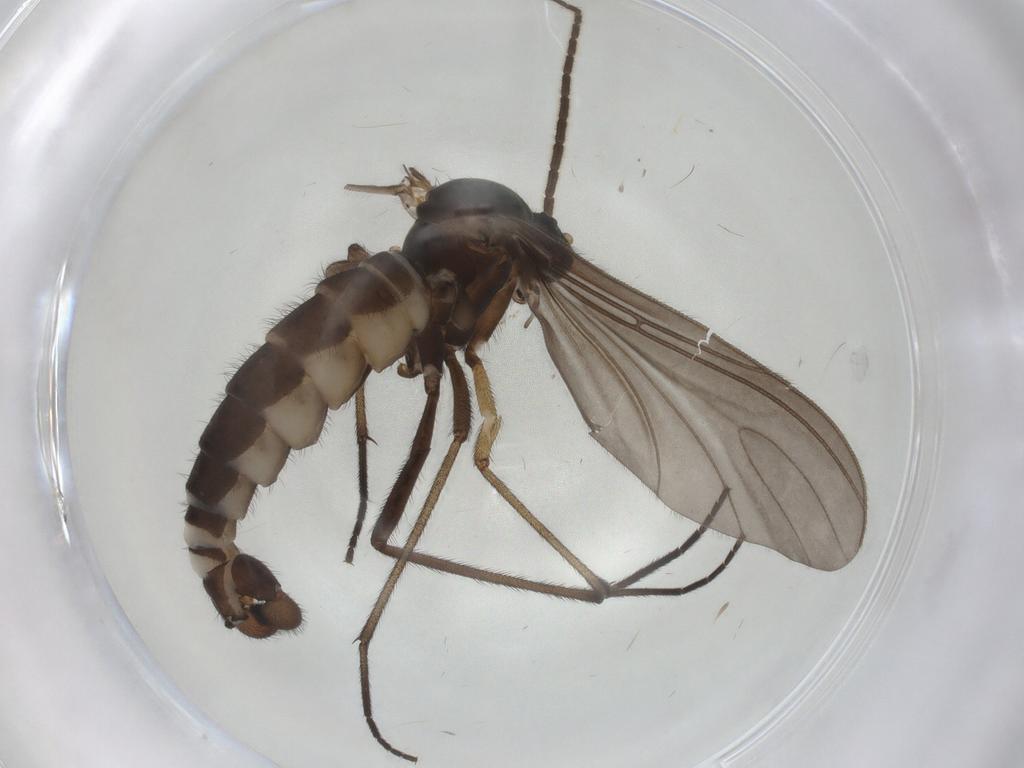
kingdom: Animalia
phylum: Arthropoda
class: Insecta
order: Diptera
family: Sciaridae
